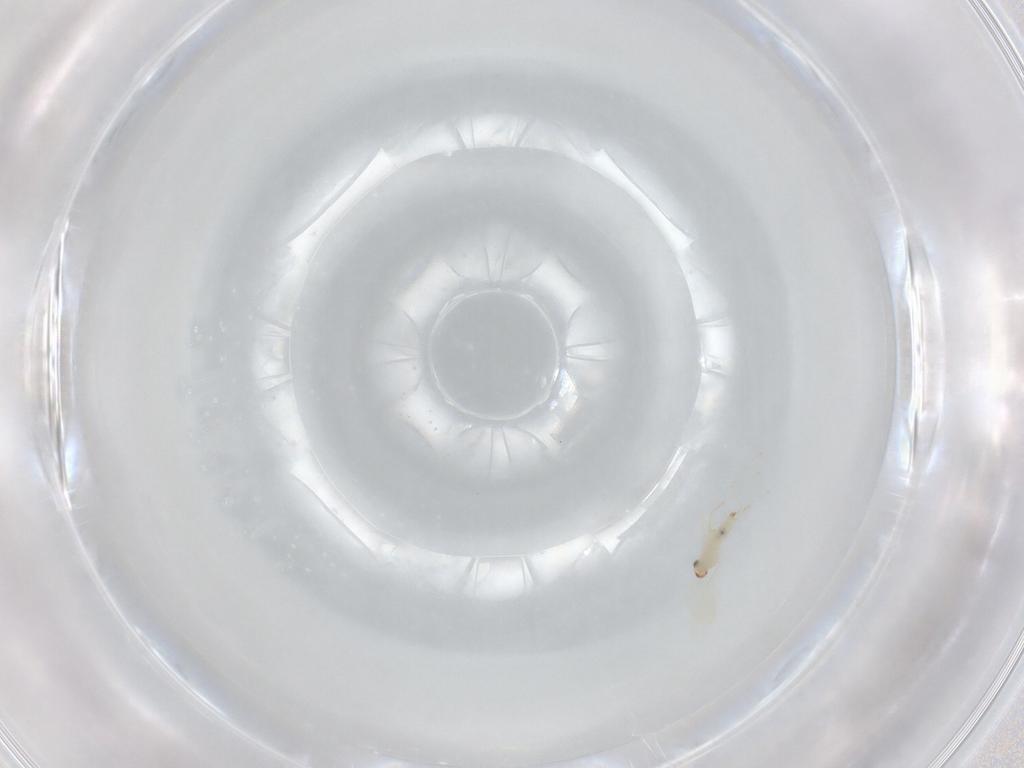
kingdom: Animalia
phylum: Arthropoda
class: Insecta
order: Diptera
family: Cecidomyiidae
